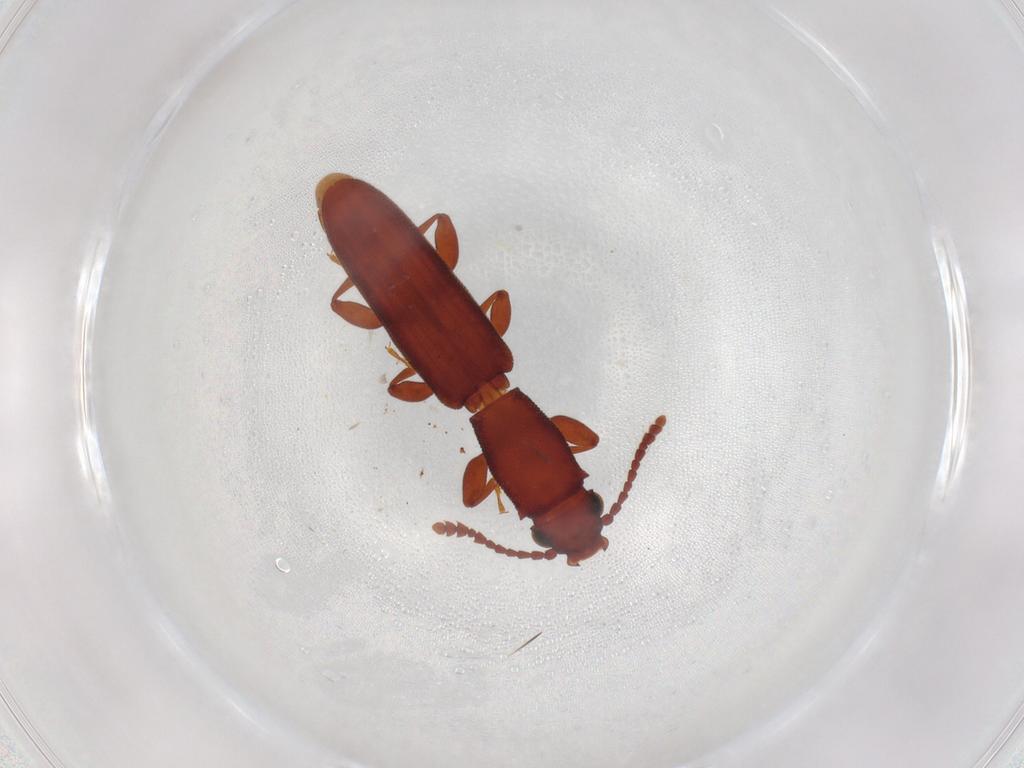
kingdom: Animalia
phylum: Arthropoda
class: Insecta
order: Coleoptera
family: Silvanidae
